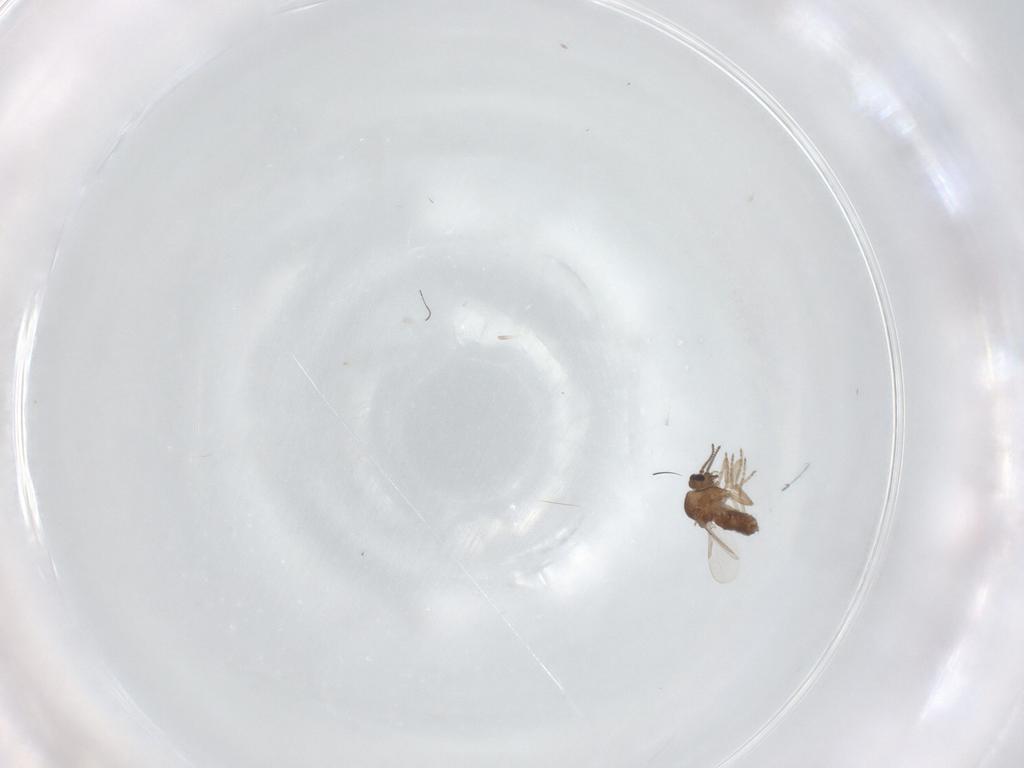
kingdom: Animalia
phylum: Arthropoda
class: Insecta
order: Diptera
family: Ceratopogonidae
